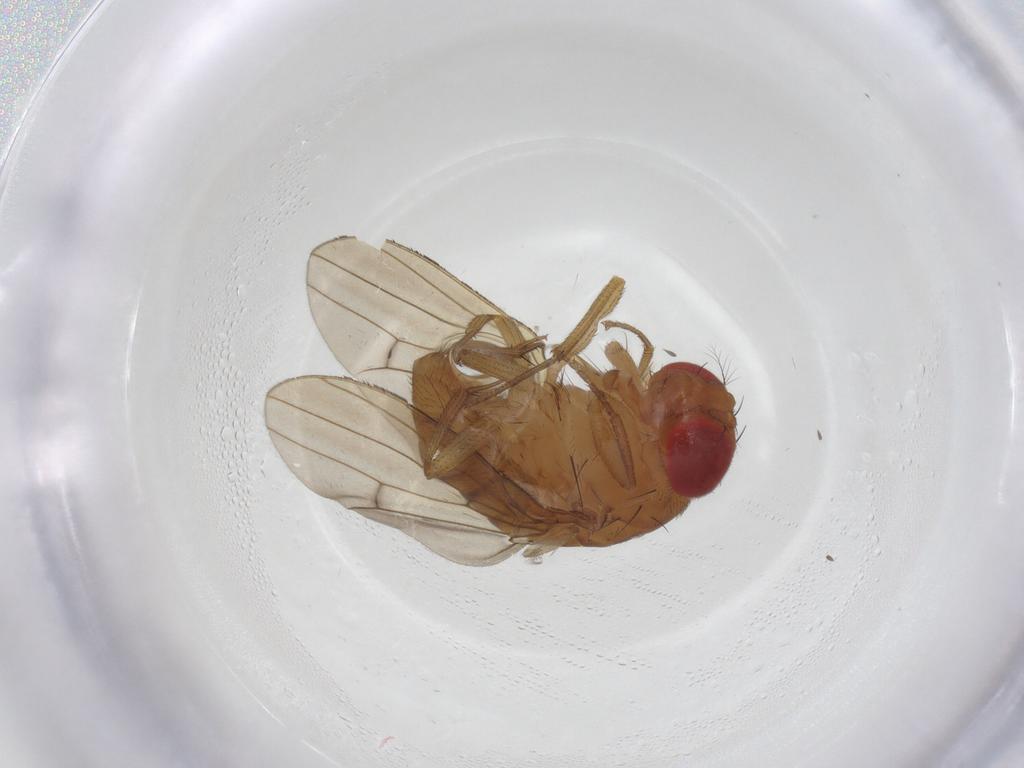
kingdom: Animalia
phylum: Arthropoda
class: Insecta
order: Diptera
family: Drosophilidae
